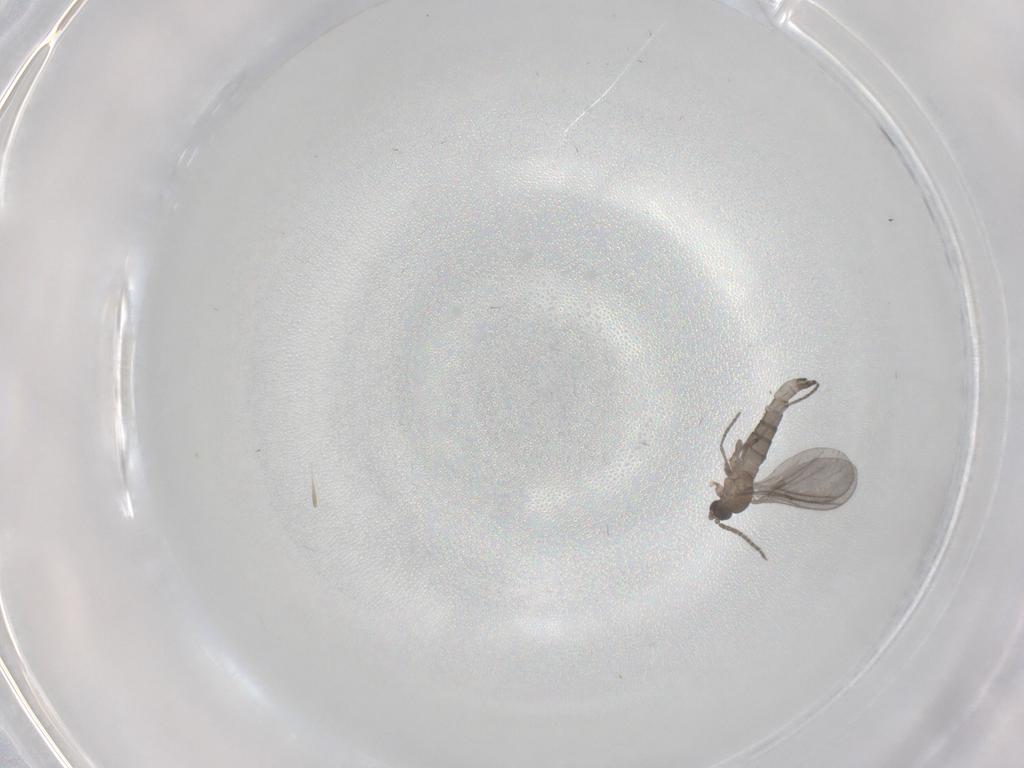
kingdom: Animalia
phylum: Arthropoda
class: Insecta
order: Diptera
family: Sciaridae
